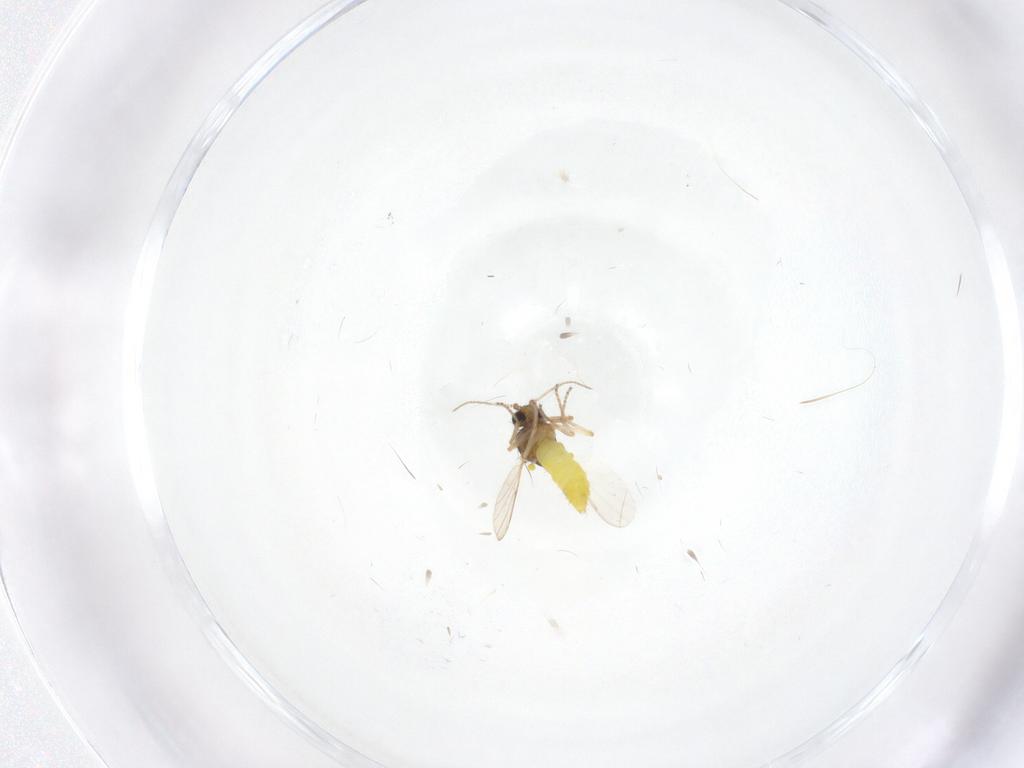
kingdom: Animalia
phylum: Arthropoda
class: Insecta
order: Diptera
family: Ceratopogonidae
